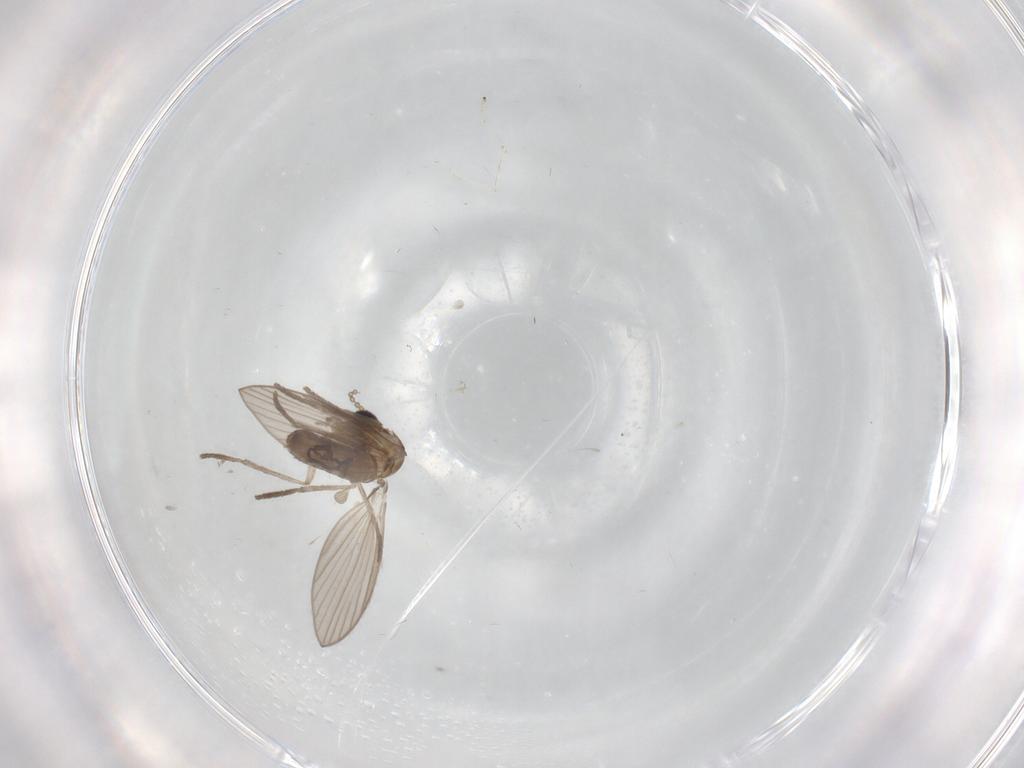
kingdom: Animalia
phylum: Arthropoda
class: Insecta
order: Diptera
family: Psychodidae
